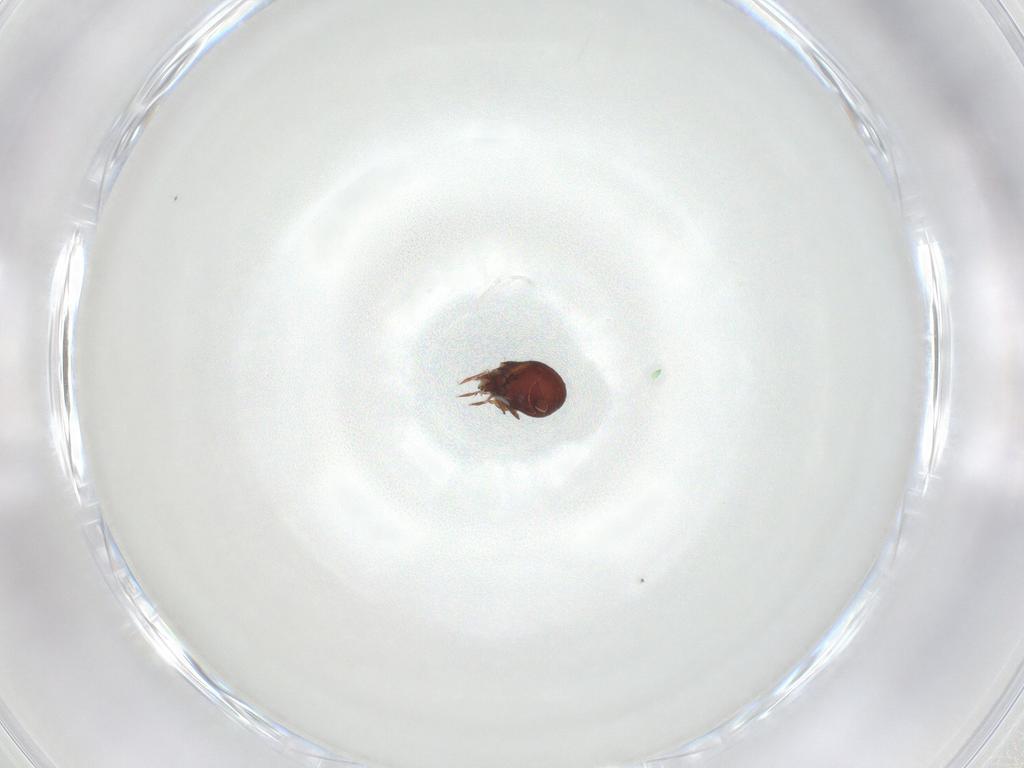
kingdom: Animalia
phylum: Arthropoda
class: Arachnida
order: Sarcoptiformes
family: Humerobatidae
